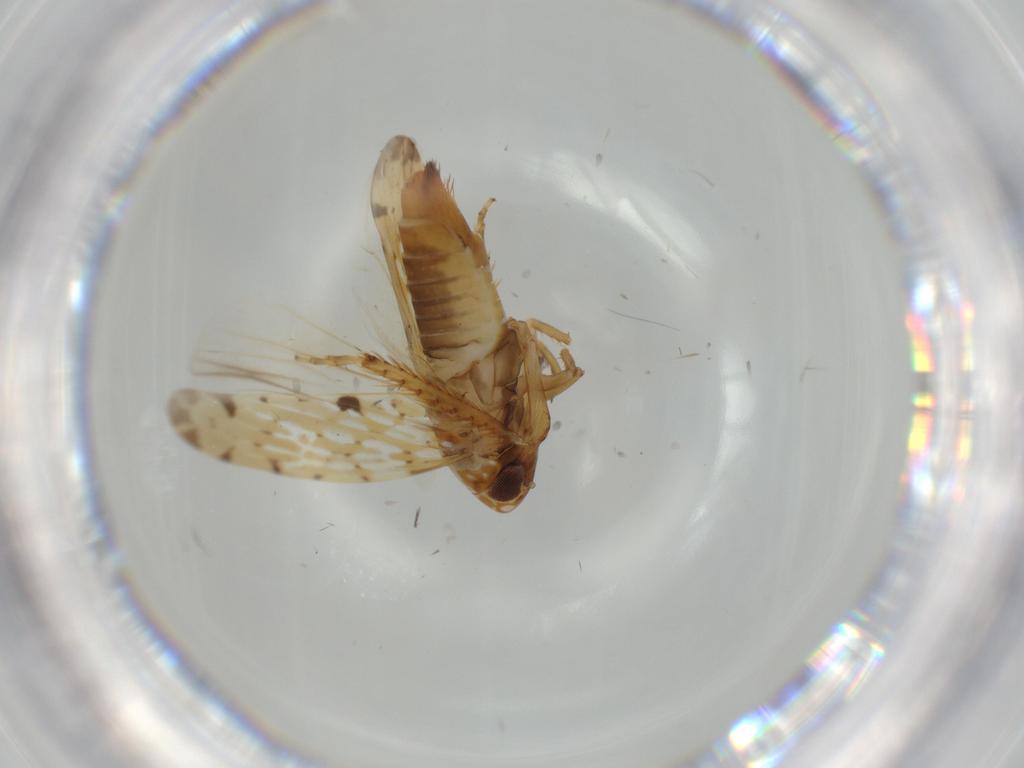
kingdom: Animalia
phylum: Arthropoda
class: Insecta
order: Hemiptera
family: Cicadellidae
